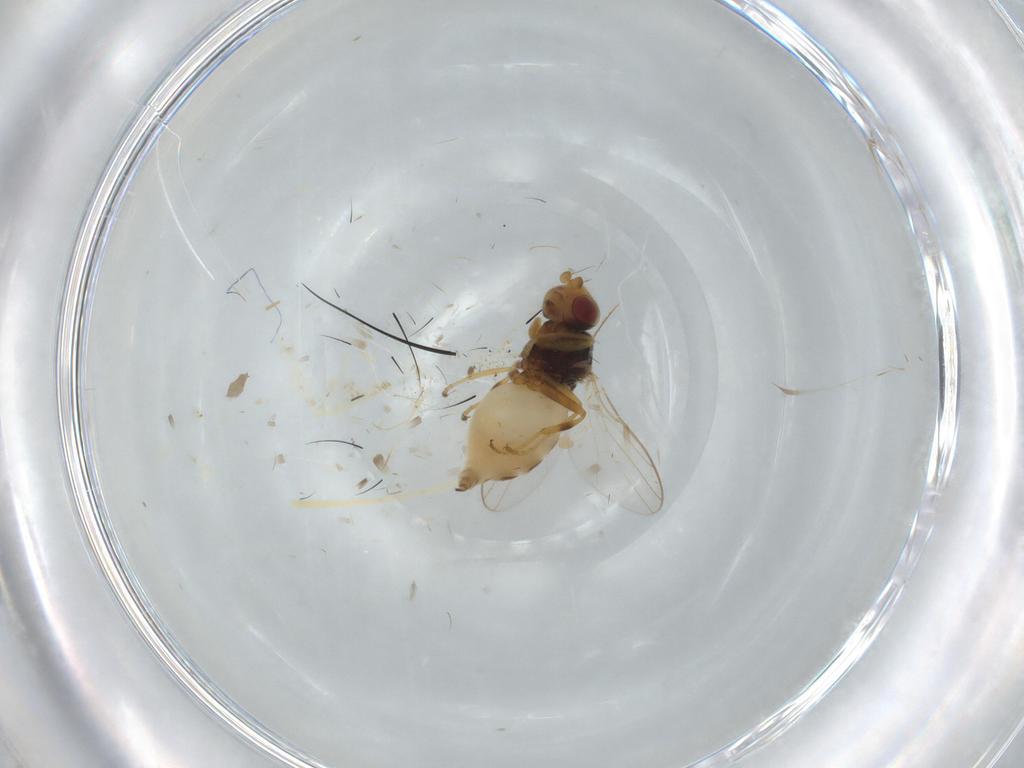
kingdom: Animalia
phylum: Arthropoda
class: Insecta
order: Diptera
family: Chloropidae
